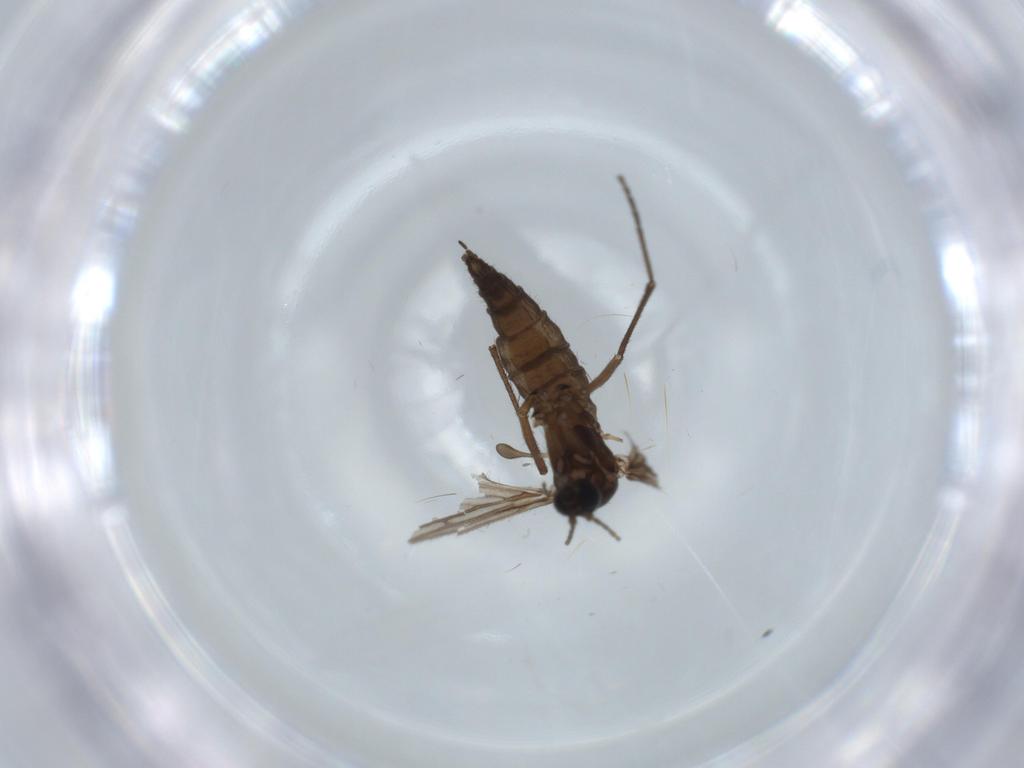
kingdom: Animalia
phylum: Arthropoda
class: Insecta
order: Diptera
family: Sciaridae
